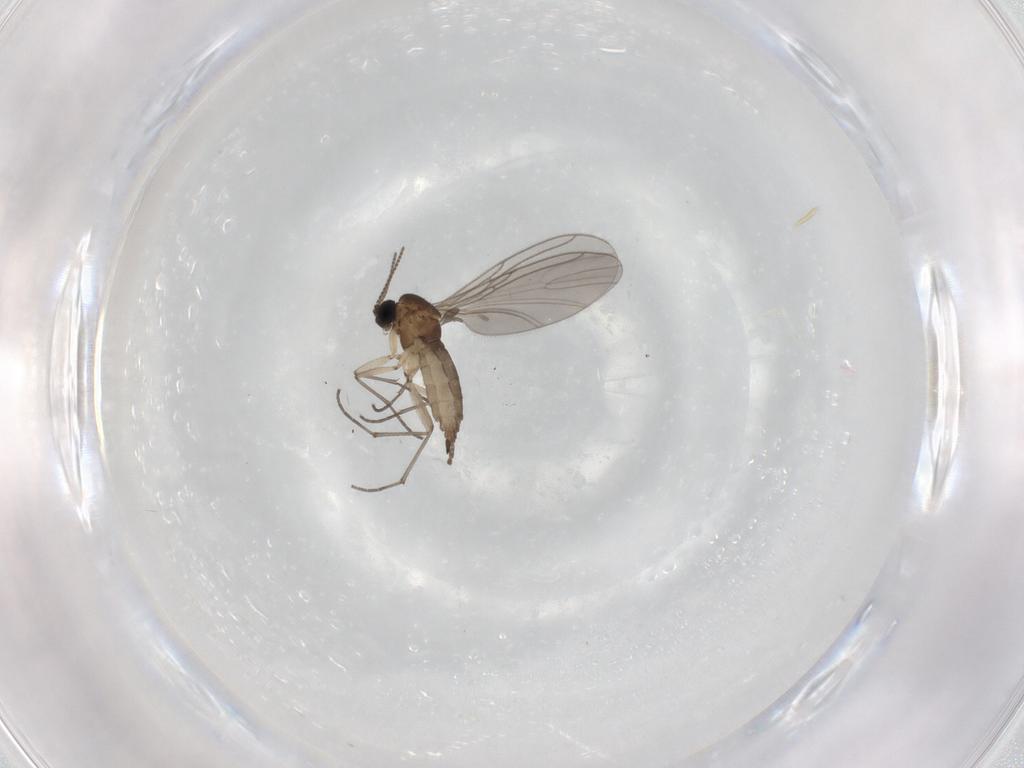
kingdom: Animalia
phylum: Arthropoda
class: Insecta
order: Diptera
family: Sciaridae
